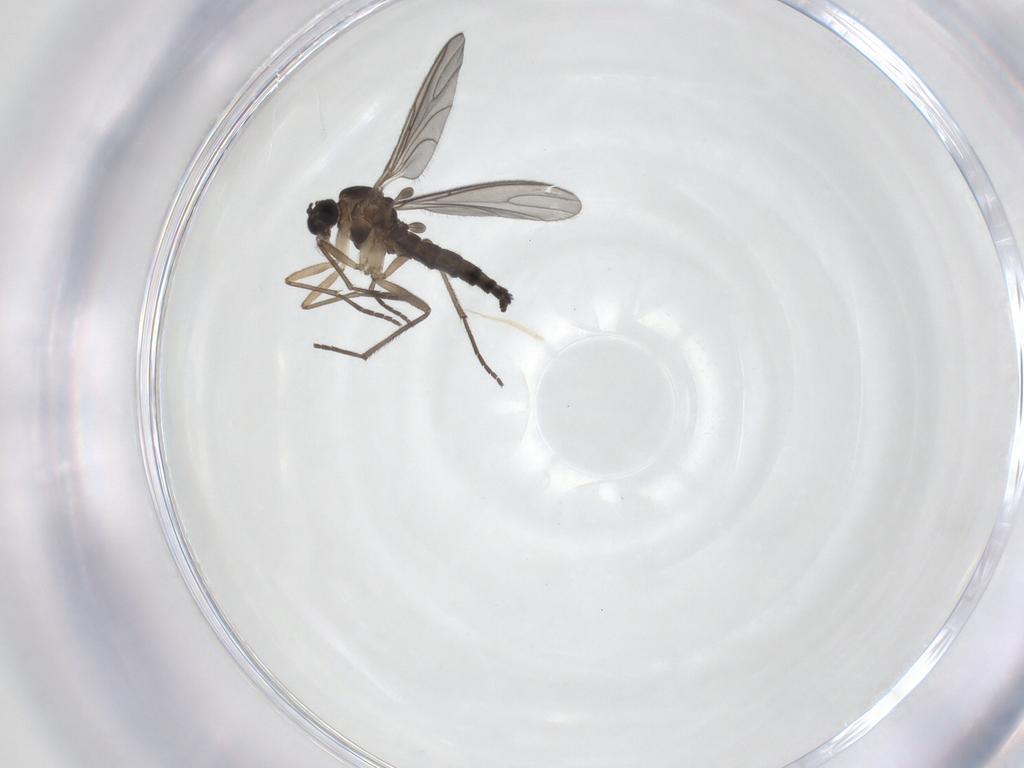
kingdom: Animalia
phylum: Arthropoda
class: Insecta
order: Diptera
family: Sciaridae
